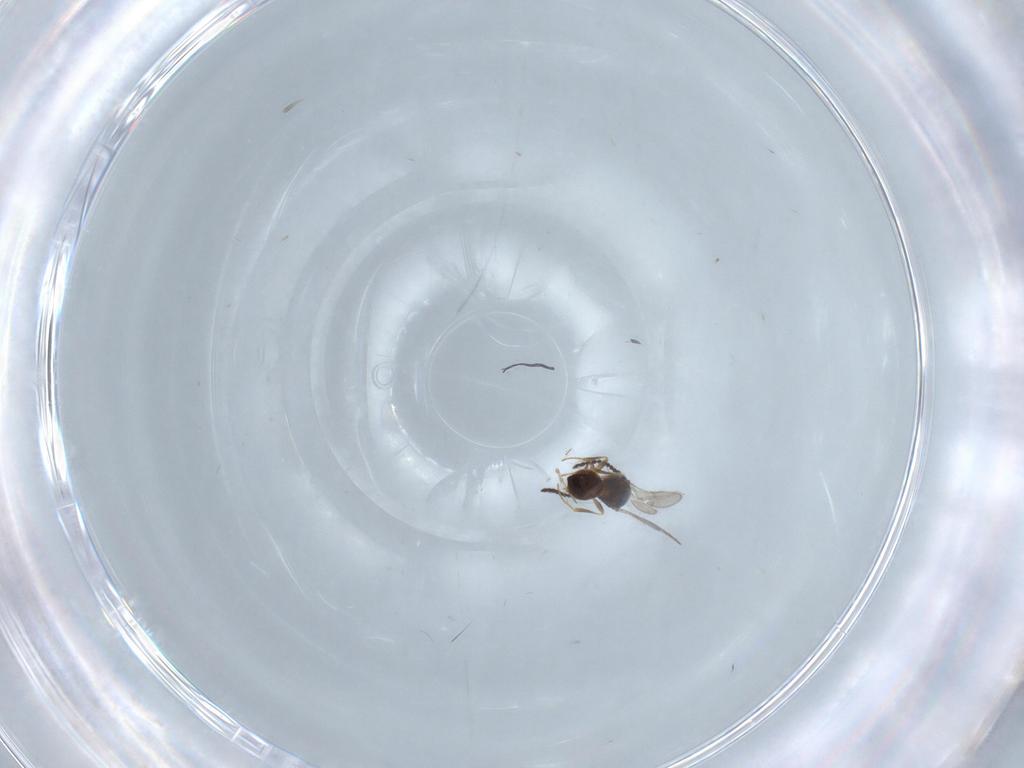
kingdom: Animalia
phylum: Arthropoda
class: Insecta
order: Hymenoptera
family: Scelionidae
